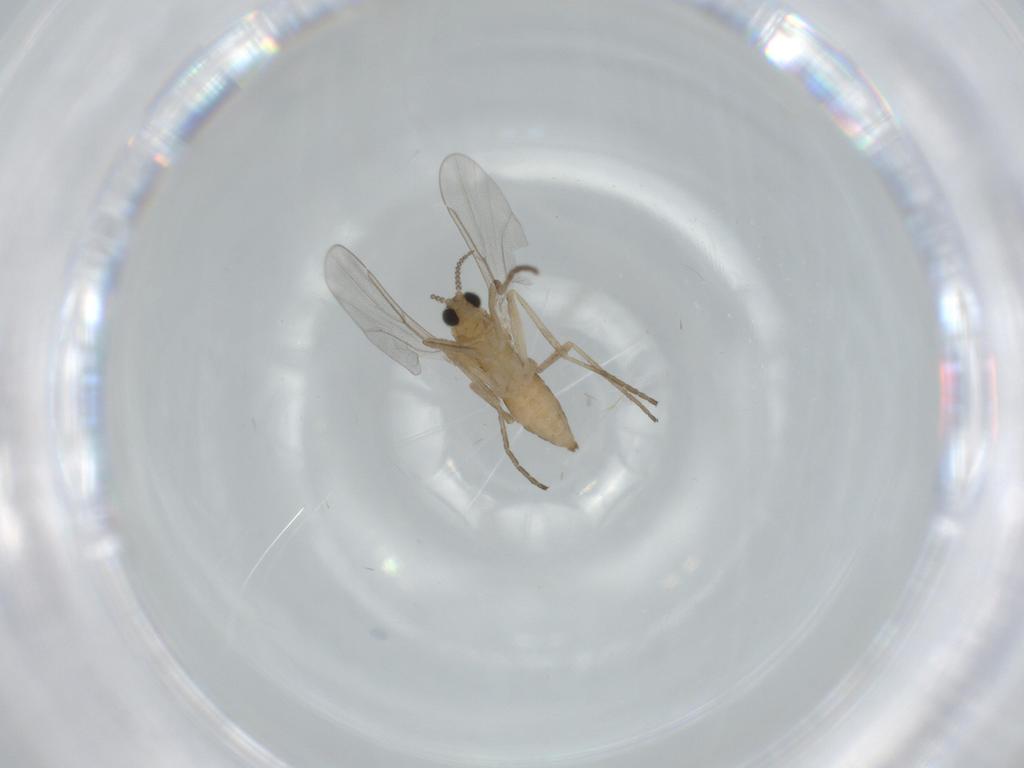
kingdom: Animalia
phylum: Arthropoda
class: Insecta
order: Diptera
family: Cecidomyiidae
